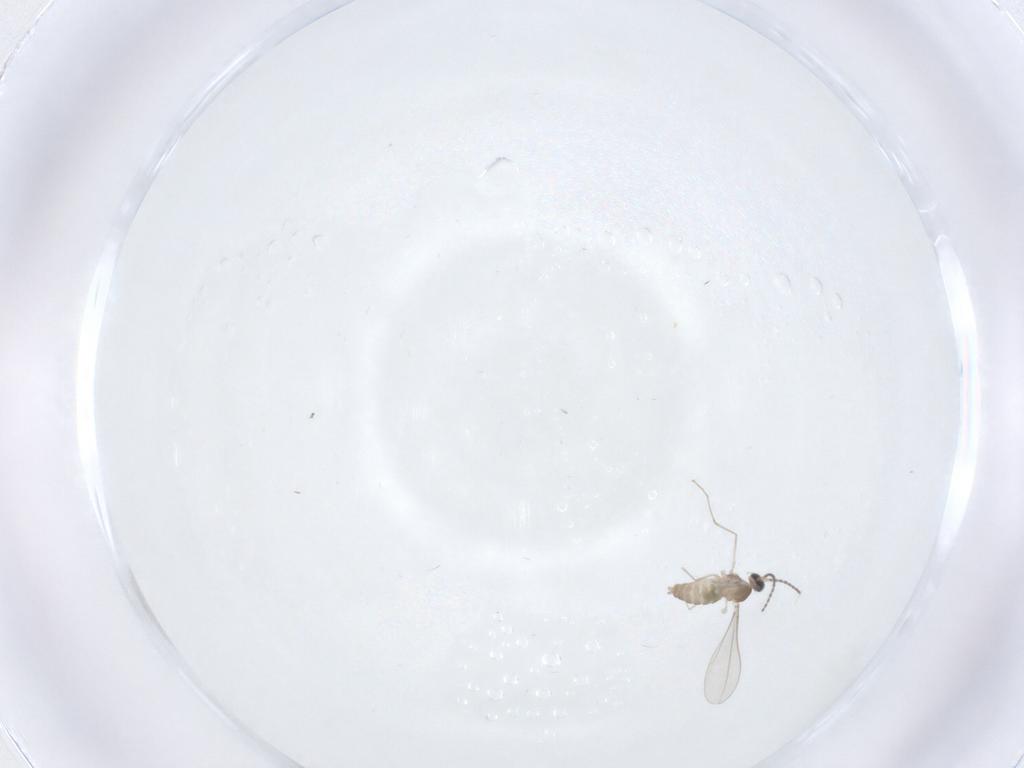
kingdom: Animalia
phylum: Arthropoda
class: Insecta
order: Diptera
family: Cecidomyiidae
